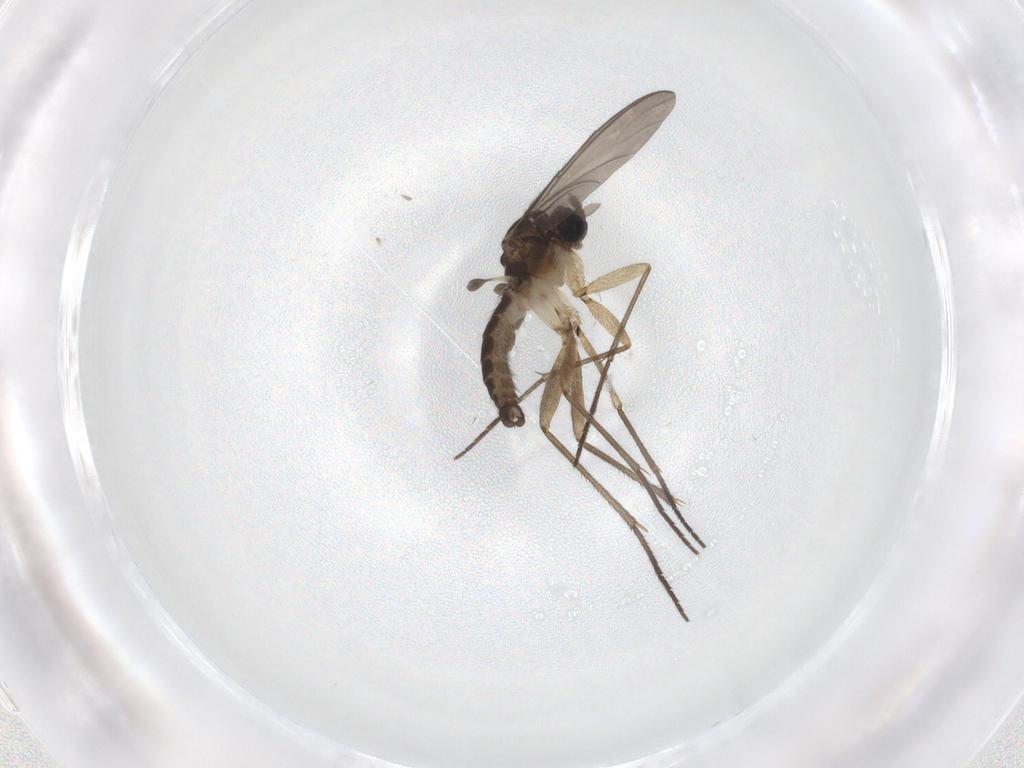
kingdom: Animalia
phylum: Arthropoda
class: Insecta
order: Diptera
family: Sciaridae
